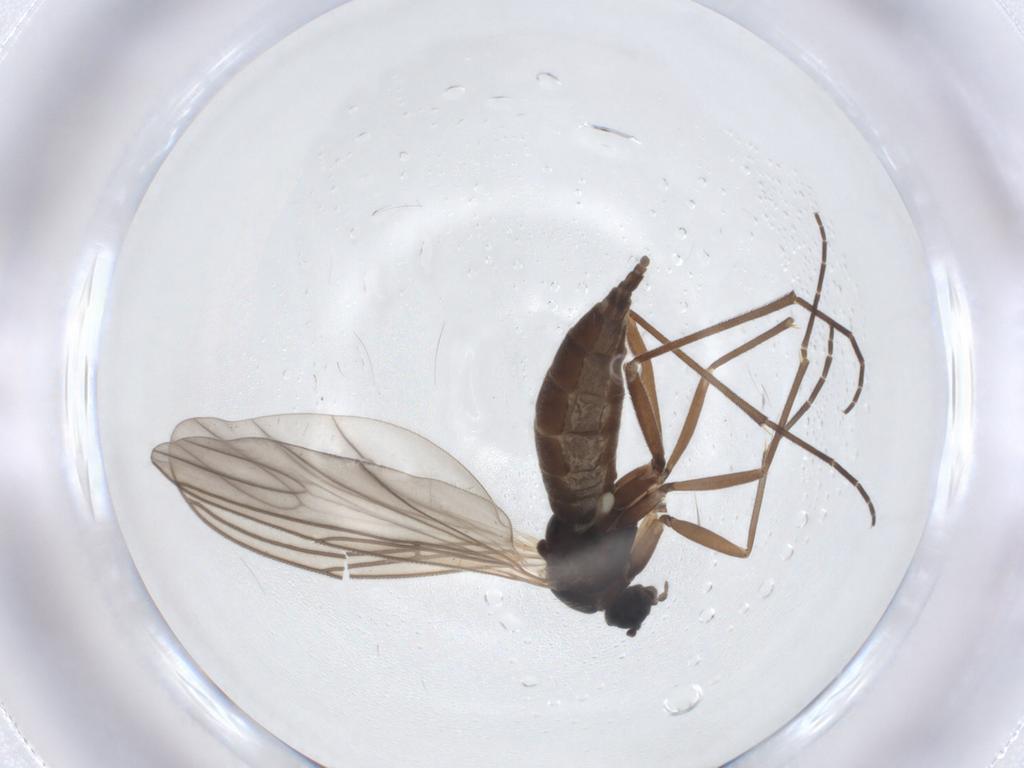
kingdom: Animalia
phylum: Arthropoda
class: Insecta
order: Diptera
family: Sciaridae
